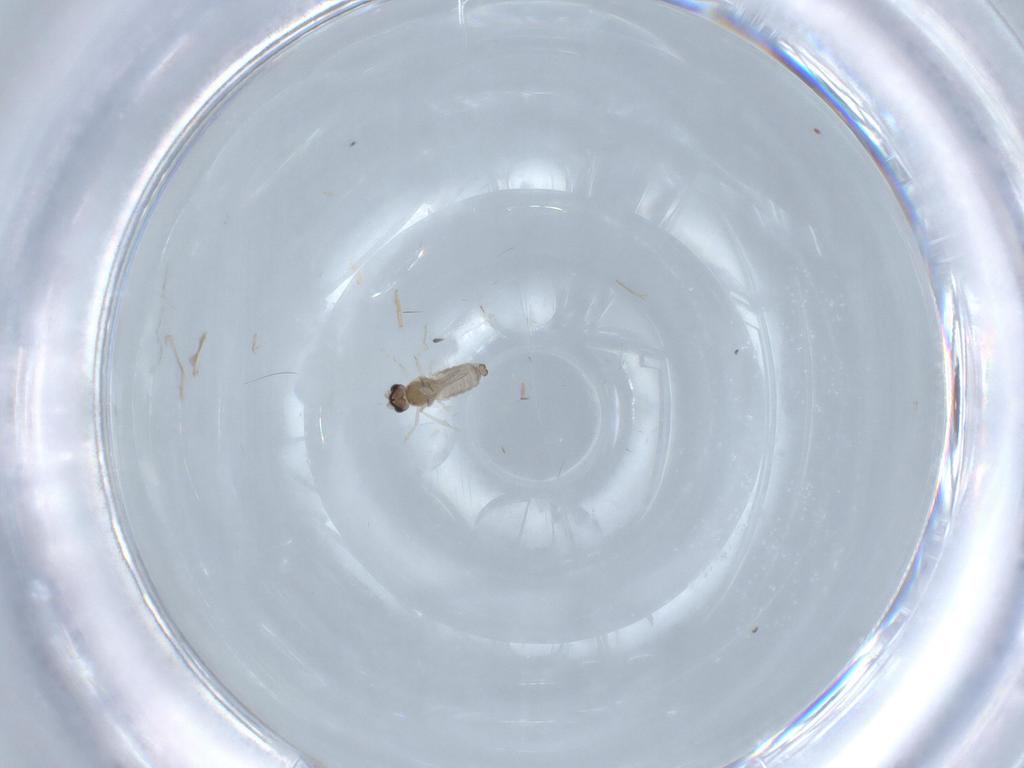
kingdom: Animalia
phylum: Arthropoda
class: Insecta
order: Diptera
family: Cecidomyiidae
